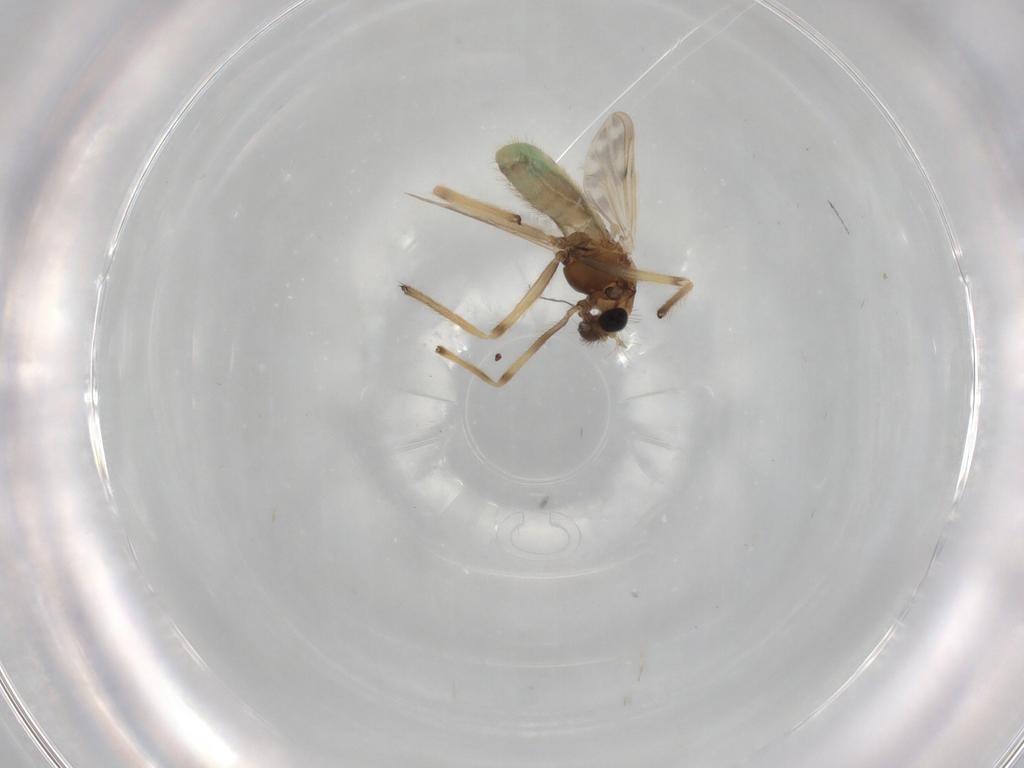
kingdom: Animalia
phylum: Arthropoda
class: Insecta
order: Diptera
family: Chironomidae
